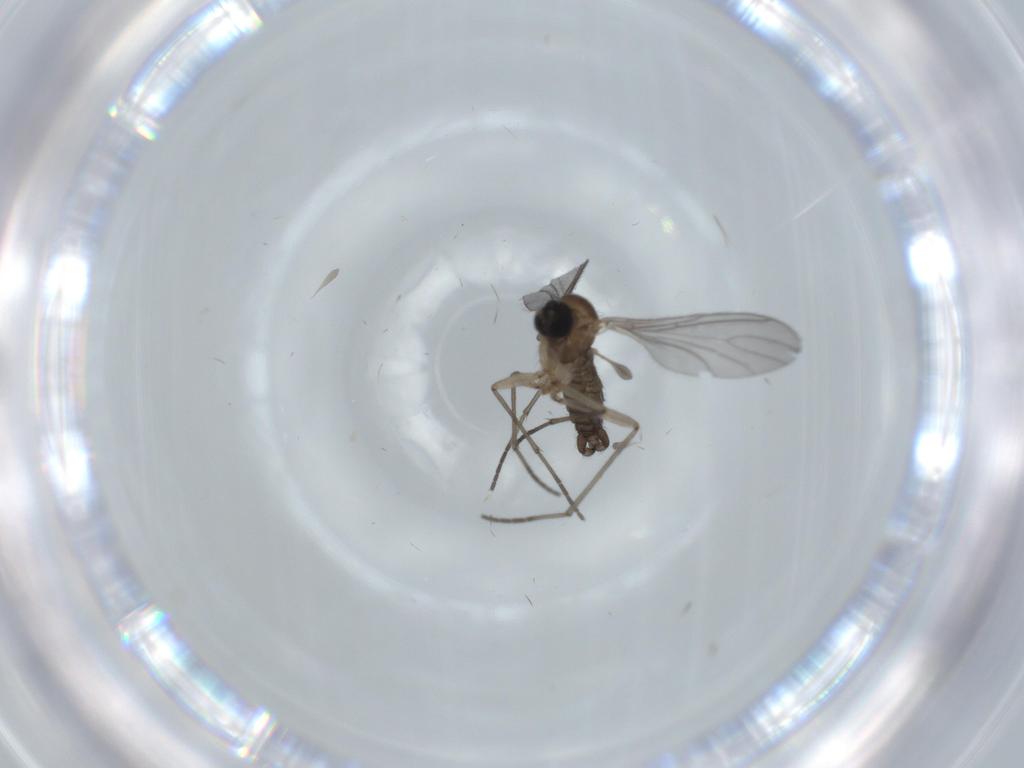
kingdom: Animalia
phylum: Arthropoda
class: Insecta
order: Diptera
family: Sciaridae
